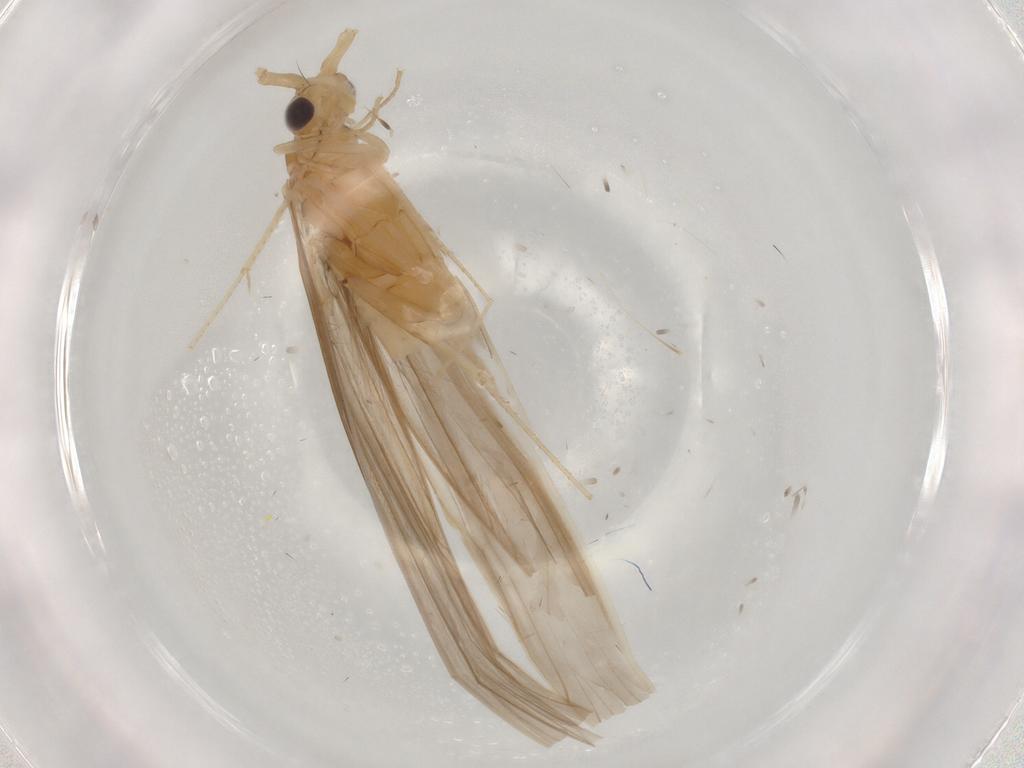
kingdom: Animalia
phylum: Arthropoda
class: Insecta
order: Trichoptera
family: Leptoceridae
